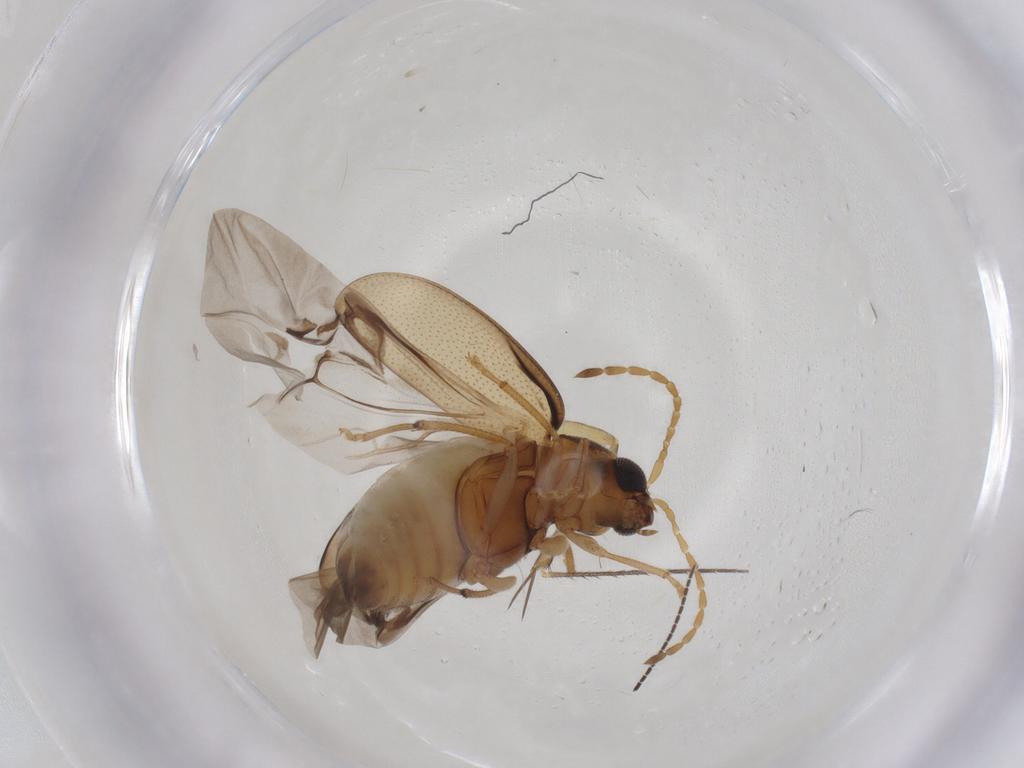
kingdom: Animalia
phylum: Arthropoda
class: Insecta
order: Coleoptera
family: Chrysomelidae
